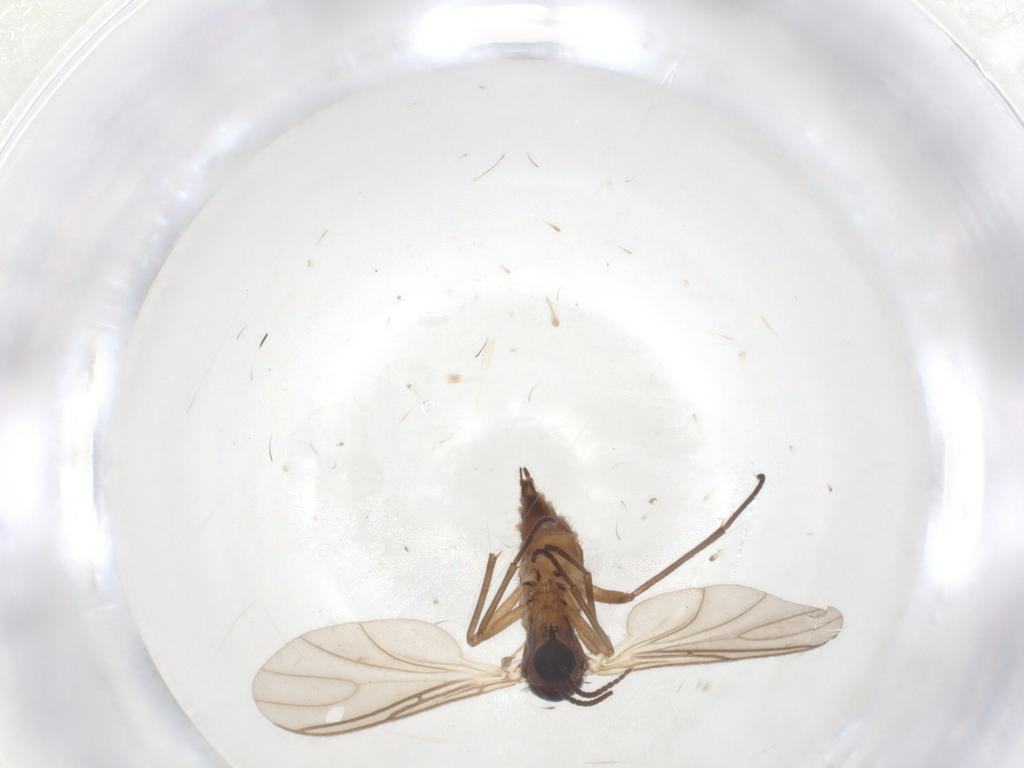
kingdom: Animalia
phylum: Arthropoda
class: Insecta
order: Diptera
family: Sciaridae
